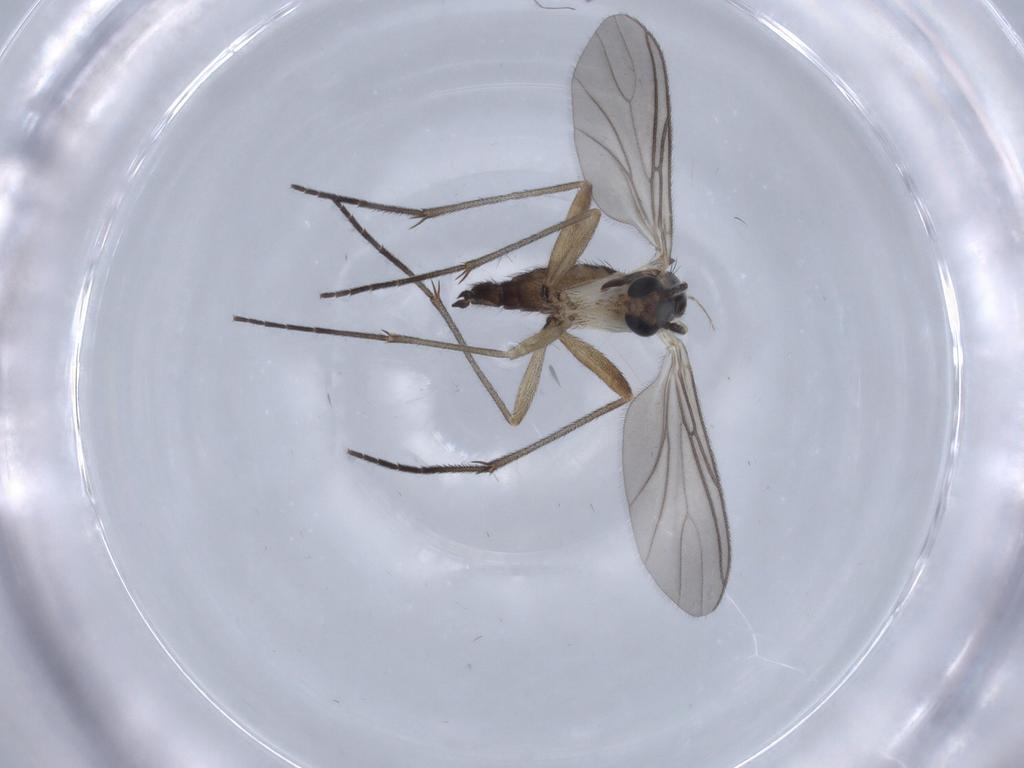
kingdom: Animalia
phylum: Arthropoda
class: Insecta
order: Diptera
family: Sciaridae
